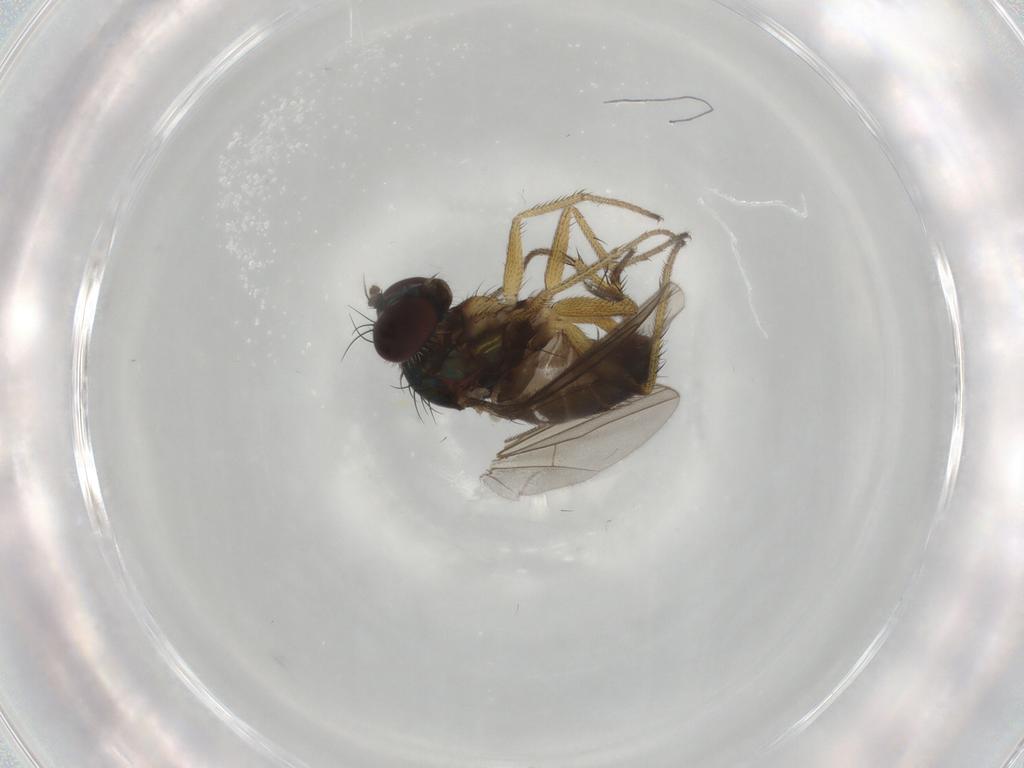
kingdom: Animalia
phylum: Arthropoda
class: Insecta
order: Diptera
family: Dolichopodidae
